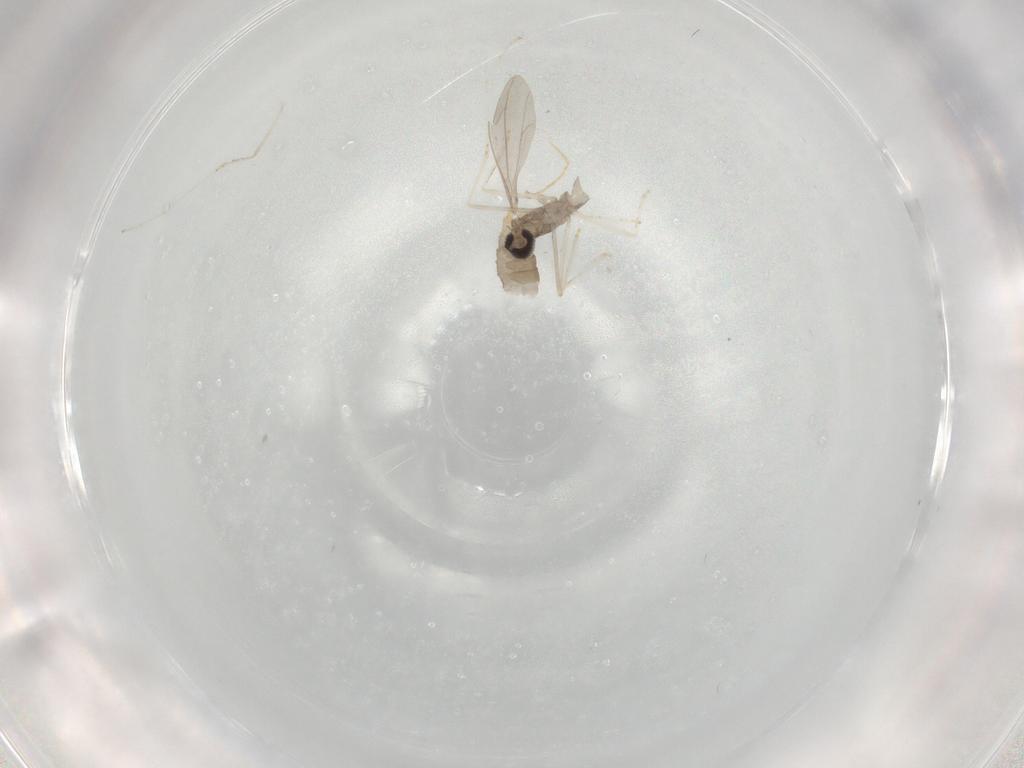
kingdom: Animalia
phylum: Arthropoda
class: Insecta
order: Diptera
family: Cecidomyiidae
